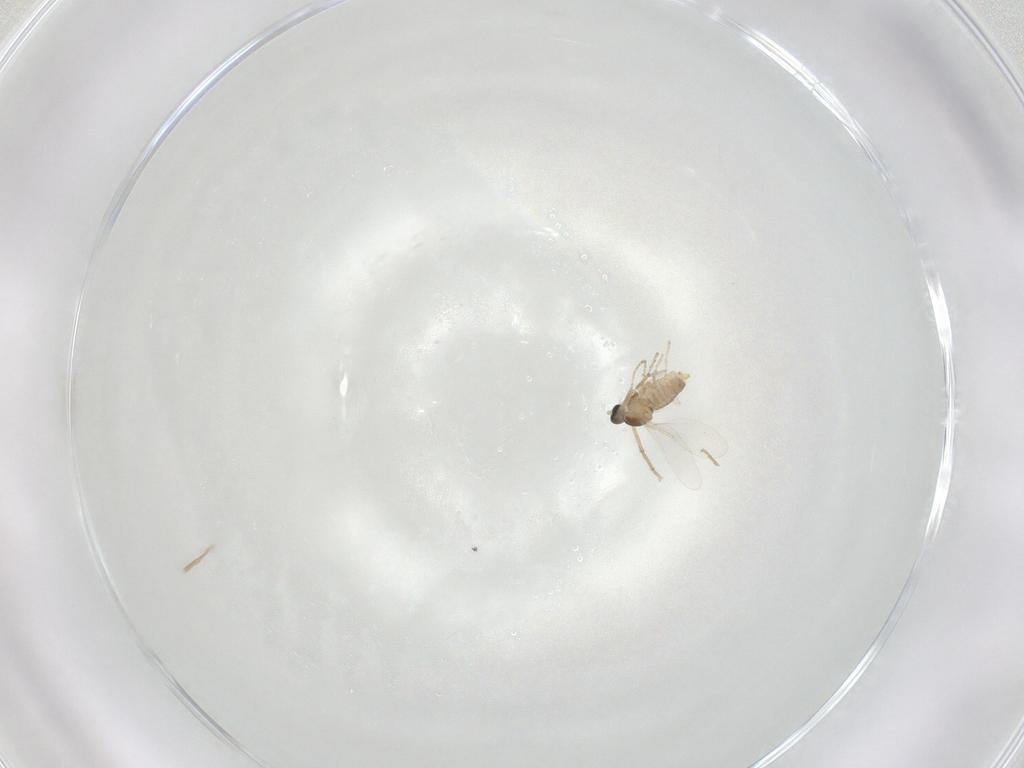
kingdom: Animalia
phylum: Arthropoda
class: Insecta
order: Diptera
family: Cecidomyiidae
